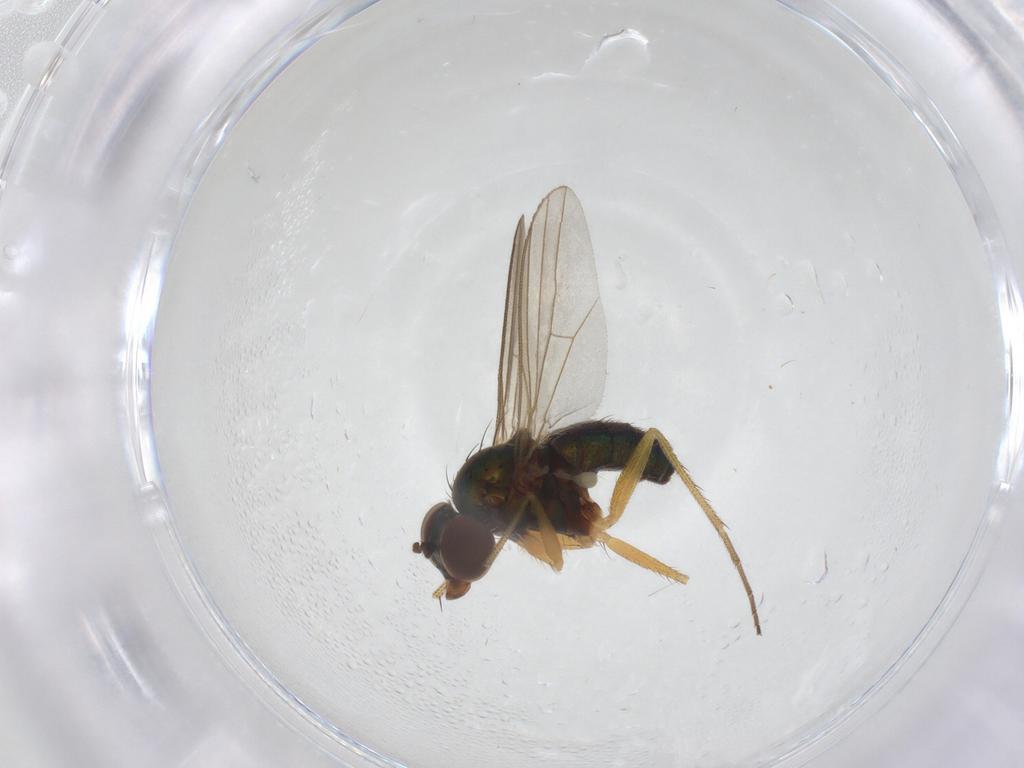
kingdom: Animalia
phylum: Arthropoda
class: Insecta
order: Diptera
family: Dolichopodidae
